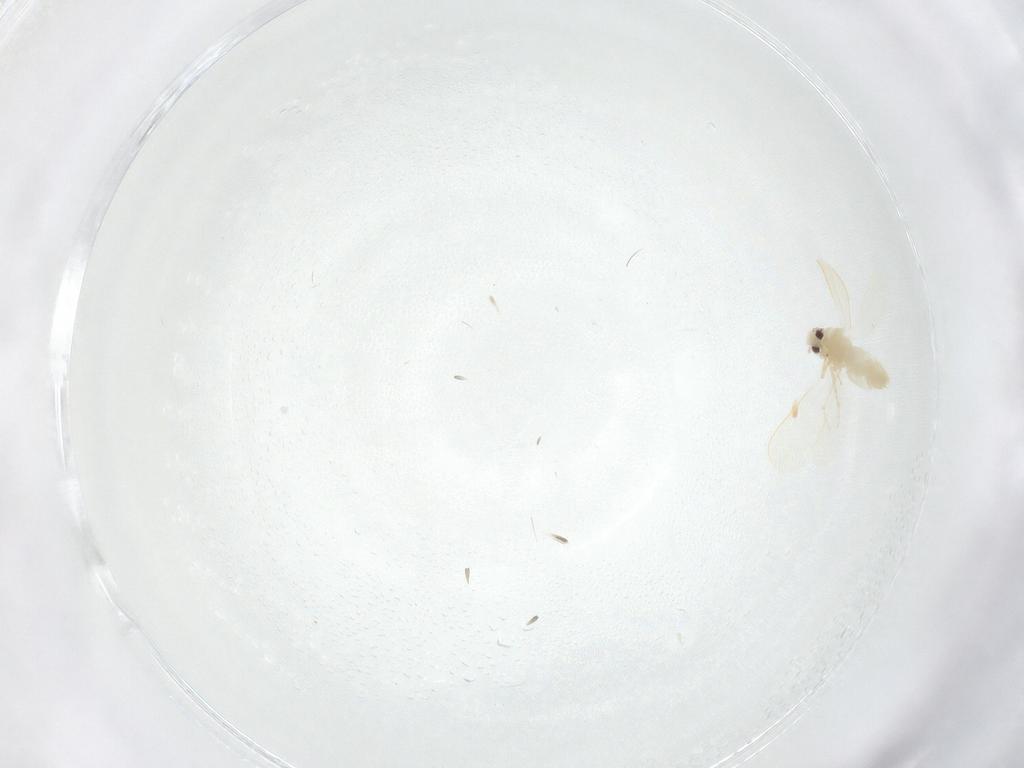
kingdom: Animalia
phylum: Arthropoda
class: Insecta
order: Hemiptera
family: Aleyrodidae
